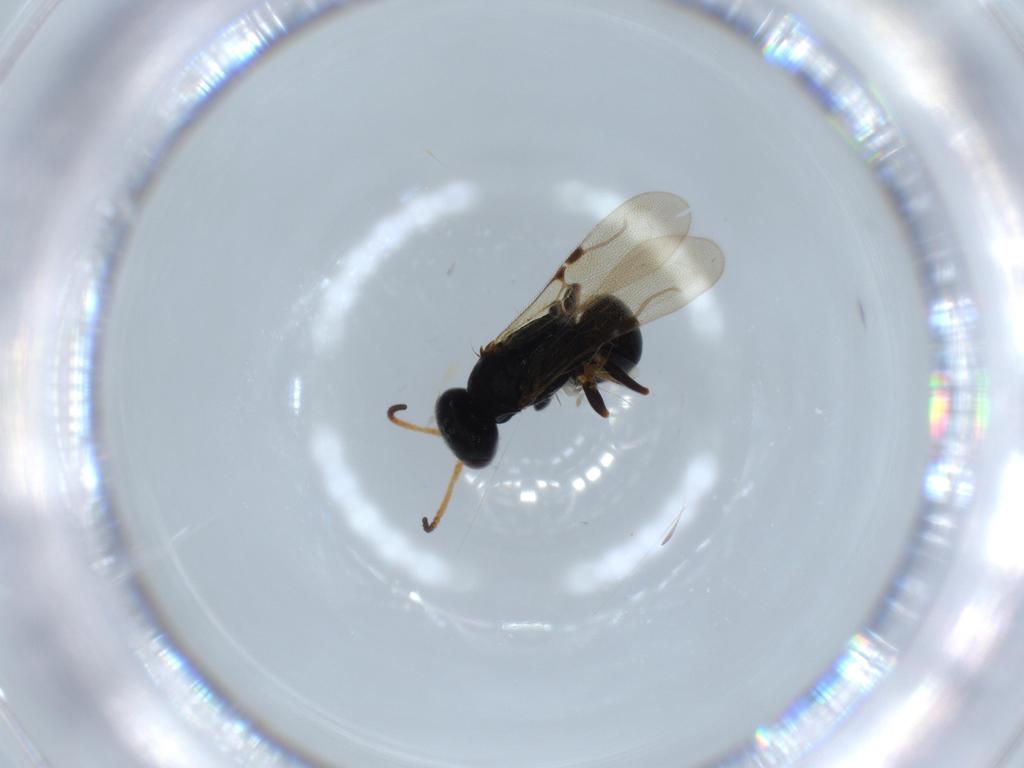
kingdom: Animalia
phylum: Arthropoda
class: Insecta
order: Hymenoptera
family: Bethylidae
